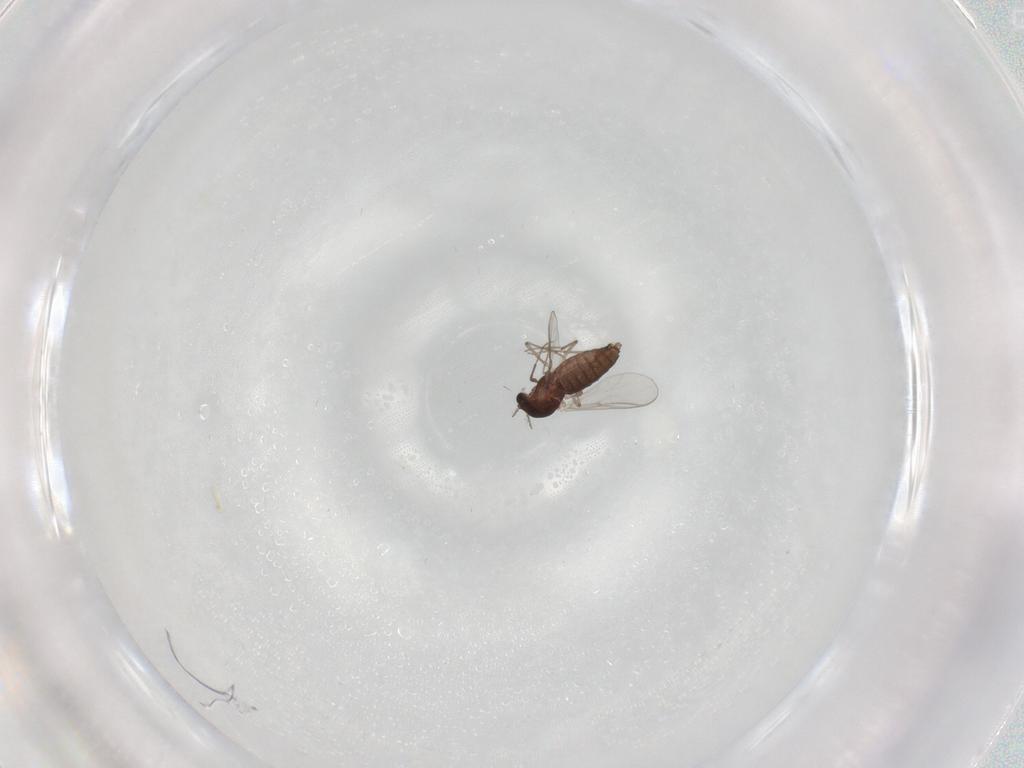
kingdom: Animalia
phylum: Arthropoda
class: Insecta
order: Diptera
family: Chironomidae
